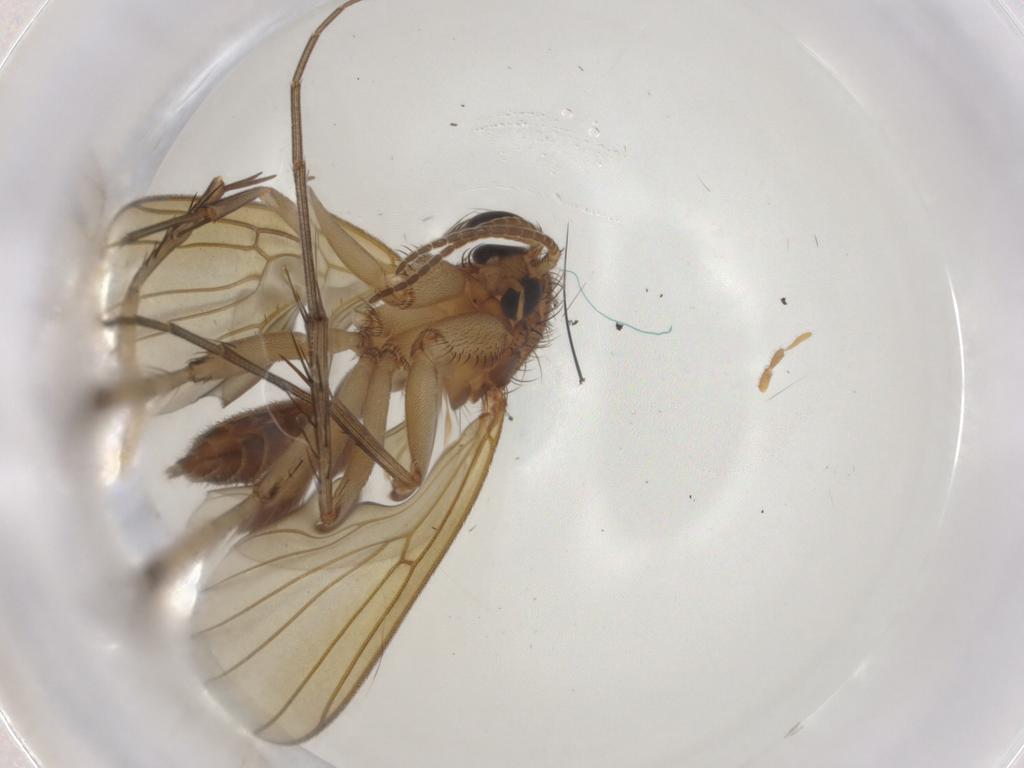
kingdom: Animalia
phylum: Arthropoda
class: Insecta
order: Diptera
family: Mycetophilidae
